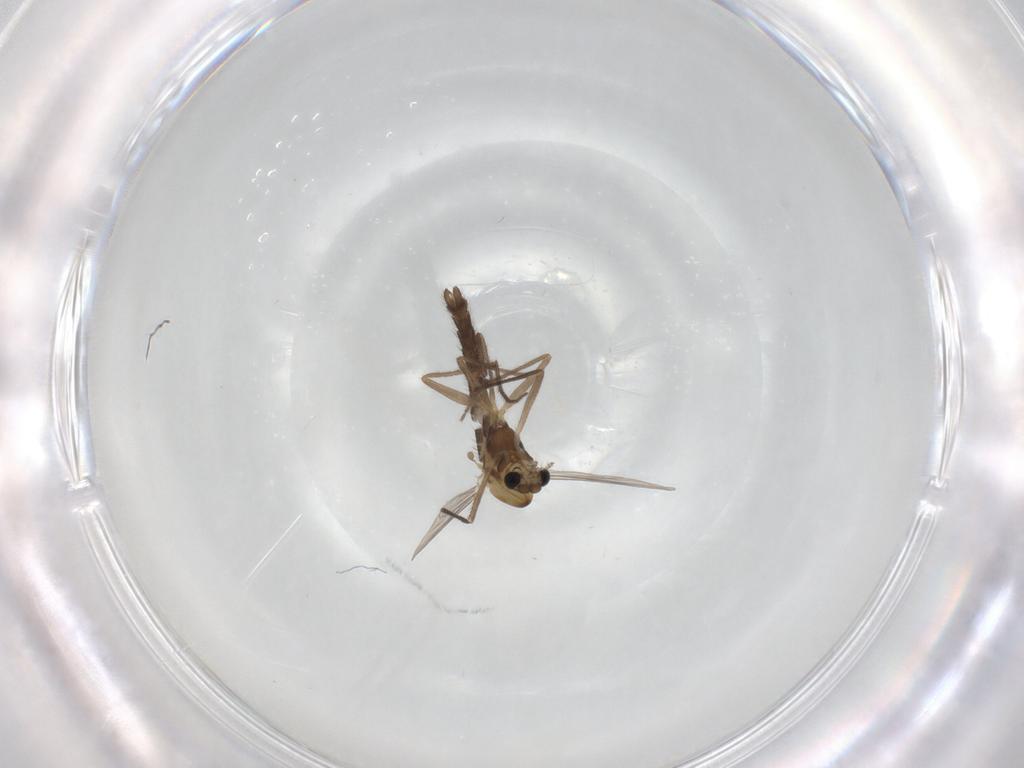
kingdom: Animalia
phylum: Arthropoda
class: Insecta
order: Diptera
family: Chironomidae
